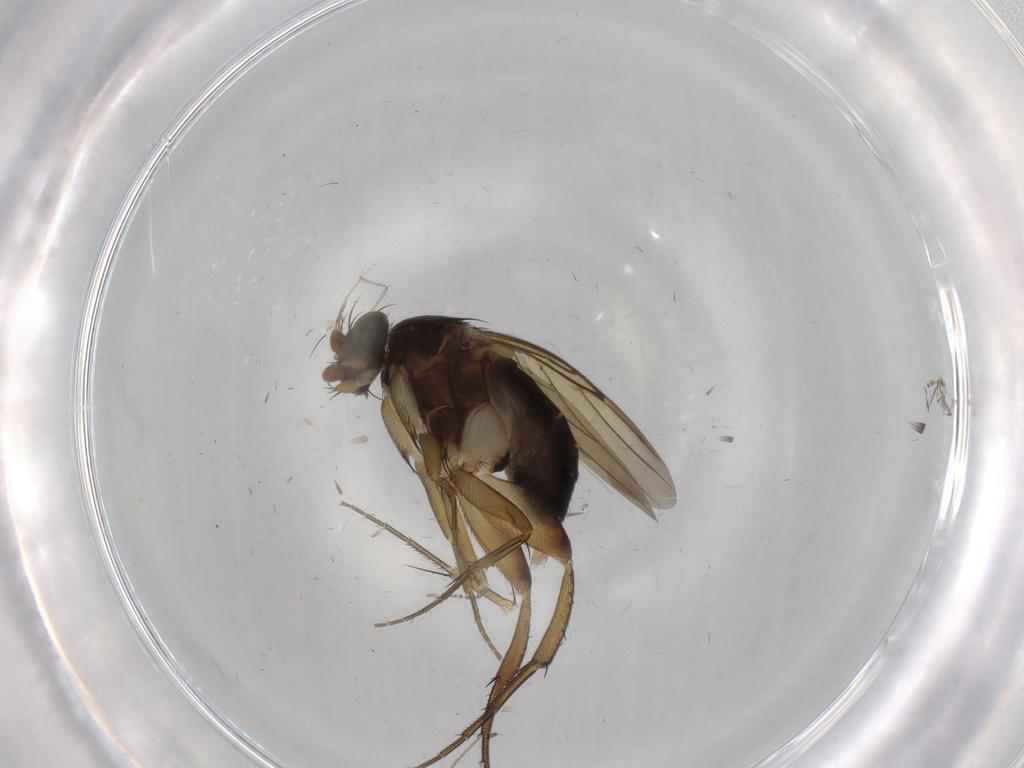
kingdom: Animalia
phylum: Arthropoda
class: Insecta
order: Diptera
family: Phoridae
